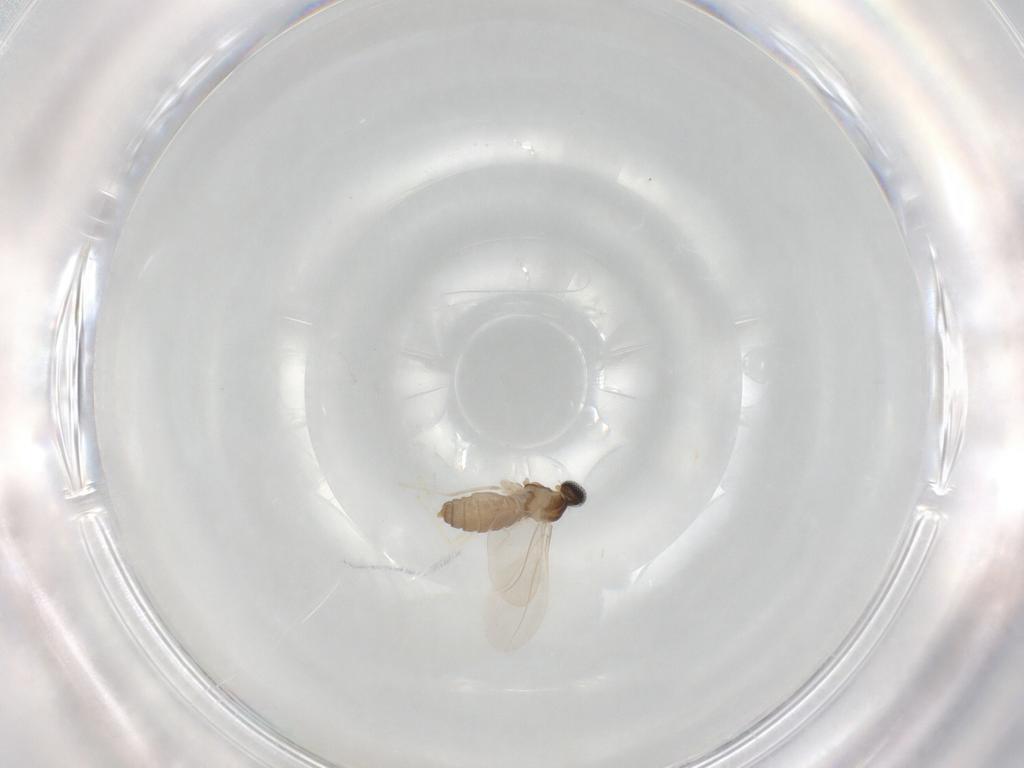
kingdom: Animalia
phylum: Arthropoda
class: Insecta
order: Diptera
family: Cecidomyiidae
